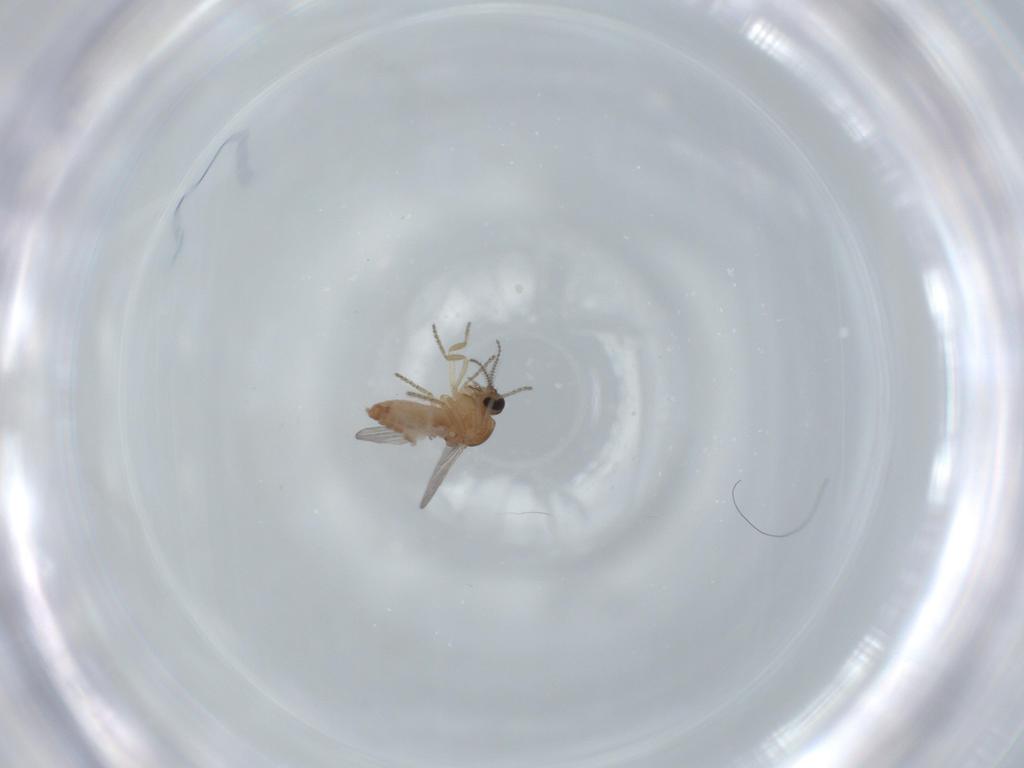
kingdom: Animalia
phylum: Arthropoda
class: Insecta
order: Diptera
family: Ceratopogonidae
